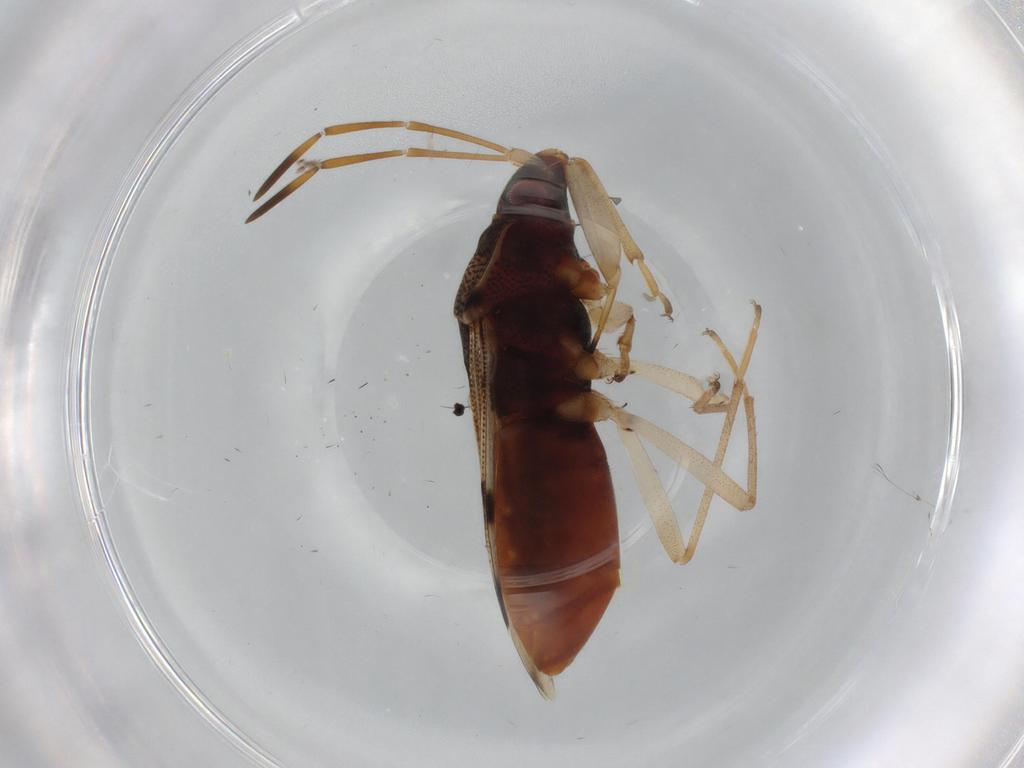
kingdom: Animalia
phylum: Arthropoda
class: Insecta
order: Hemiptera
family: Rhyparochromidae
